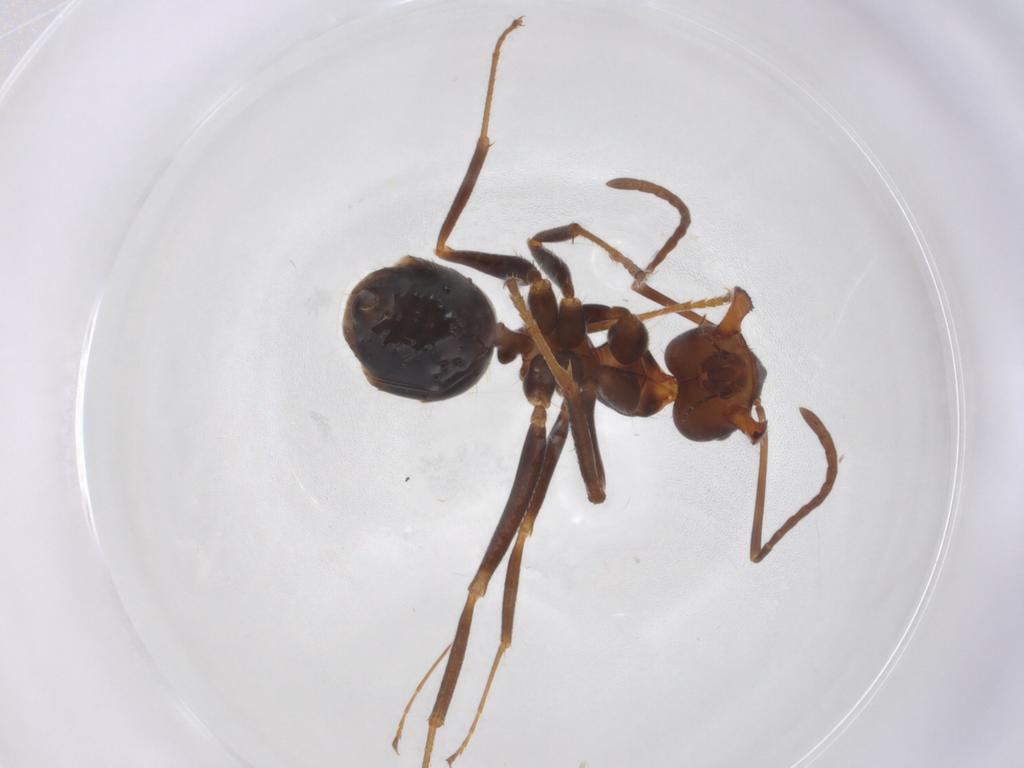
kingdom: Animalia
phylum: Arthropoda
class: Insecta
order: Hymenoptera
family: Formicidae
